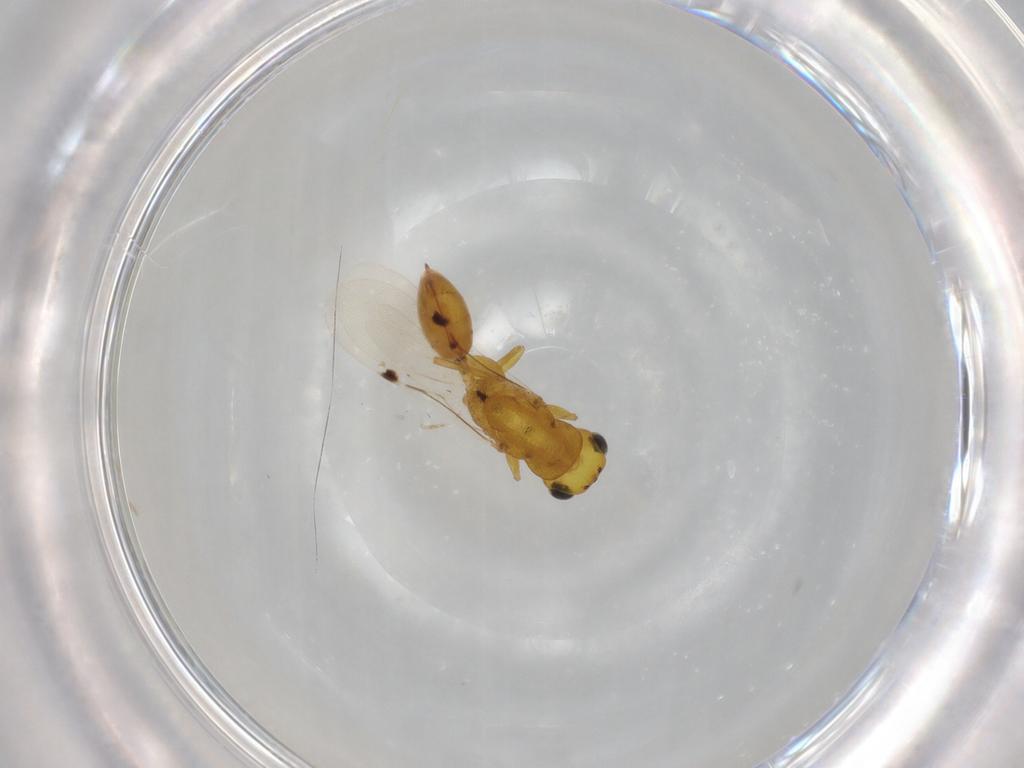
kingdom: Animalia
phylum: Arthropoda
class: Insecta
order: Hymenoptera
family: Eurytomidae
